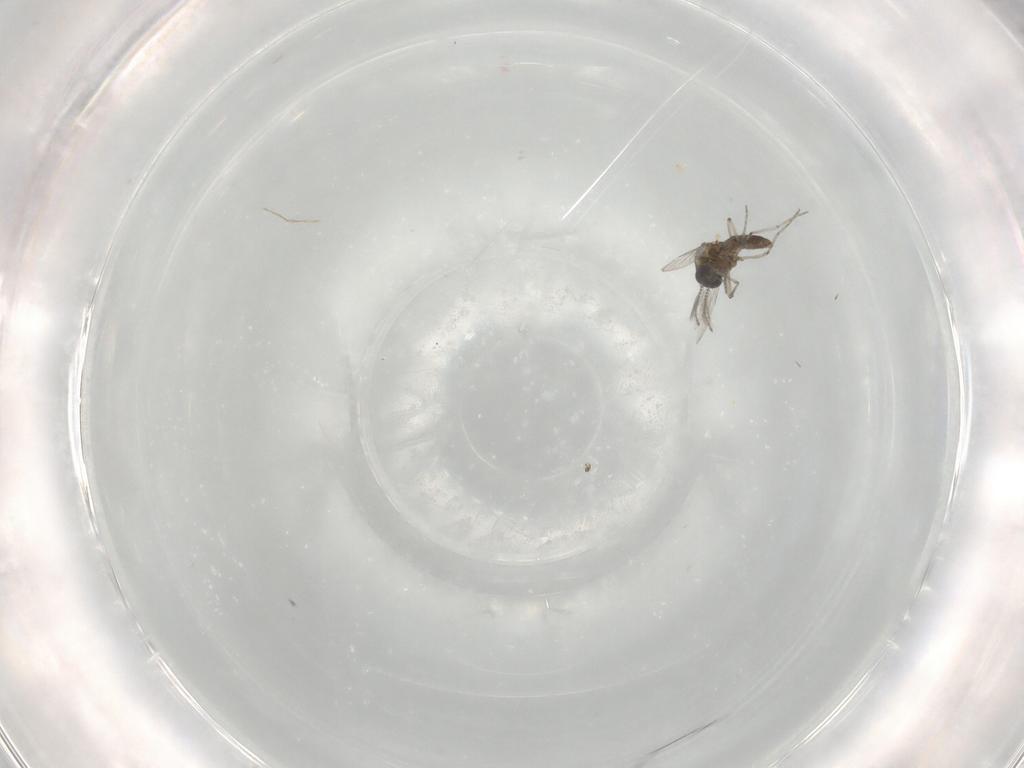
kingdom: Animalia
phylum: Arthropoda
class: Insecta
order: Diptera
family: Ceratopogonidae
